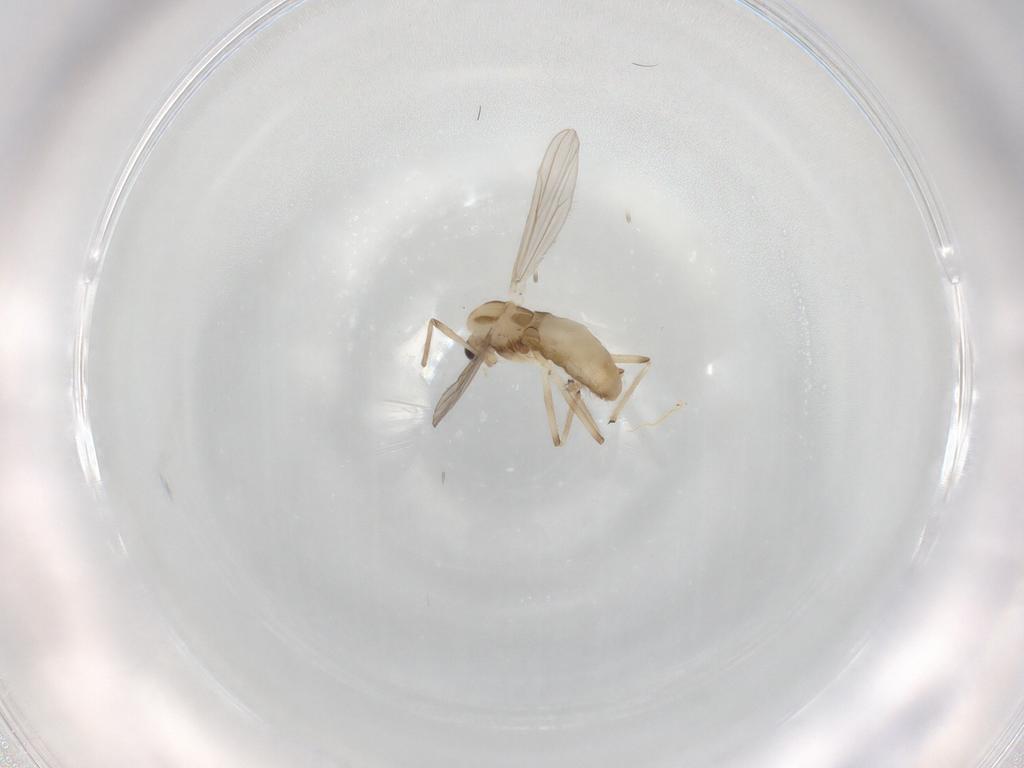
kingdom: Animalia
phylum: Arthropoda
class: Insecta
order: Diptera
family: Chironomidae
